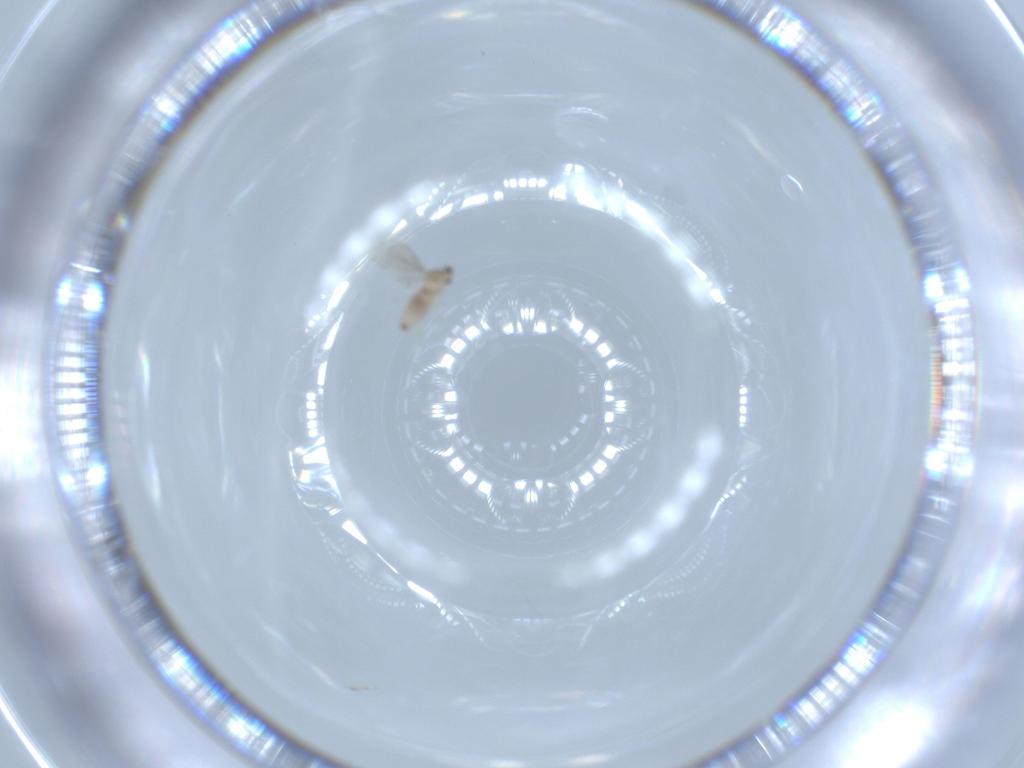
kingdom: Animalia
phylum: Arthropoda
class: Insecta
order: Diptera
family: Cecidomyiidae
